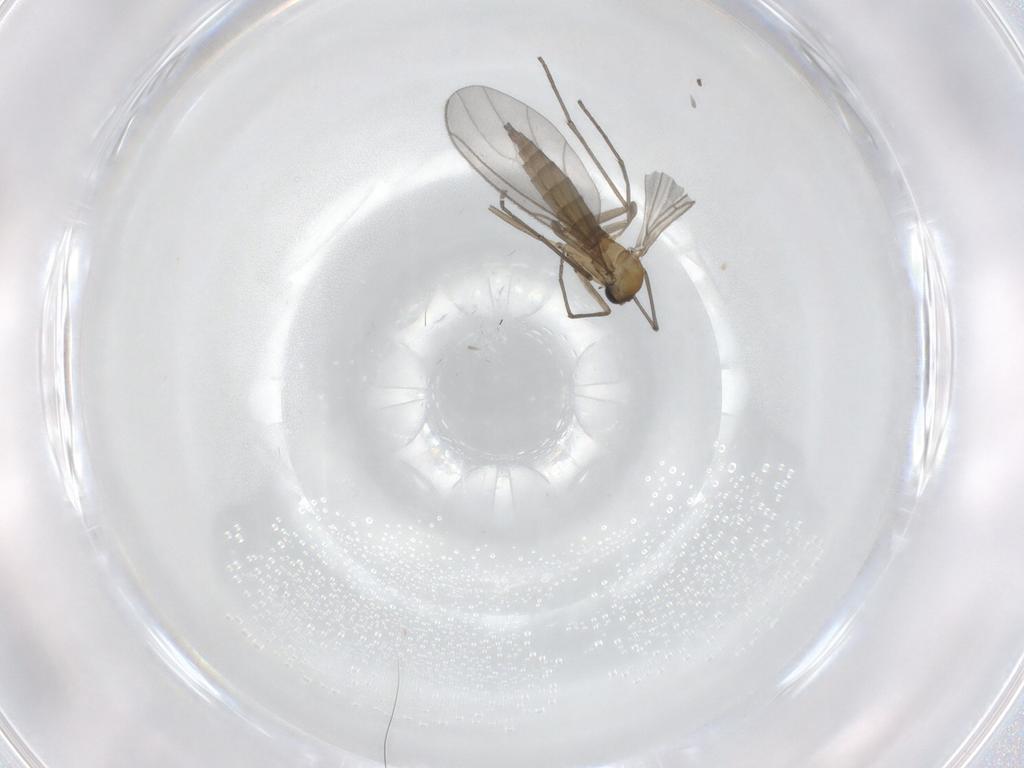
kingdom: Animalia
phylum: Arthropoda
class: Insecta
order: Diptera
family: Sciaridae
